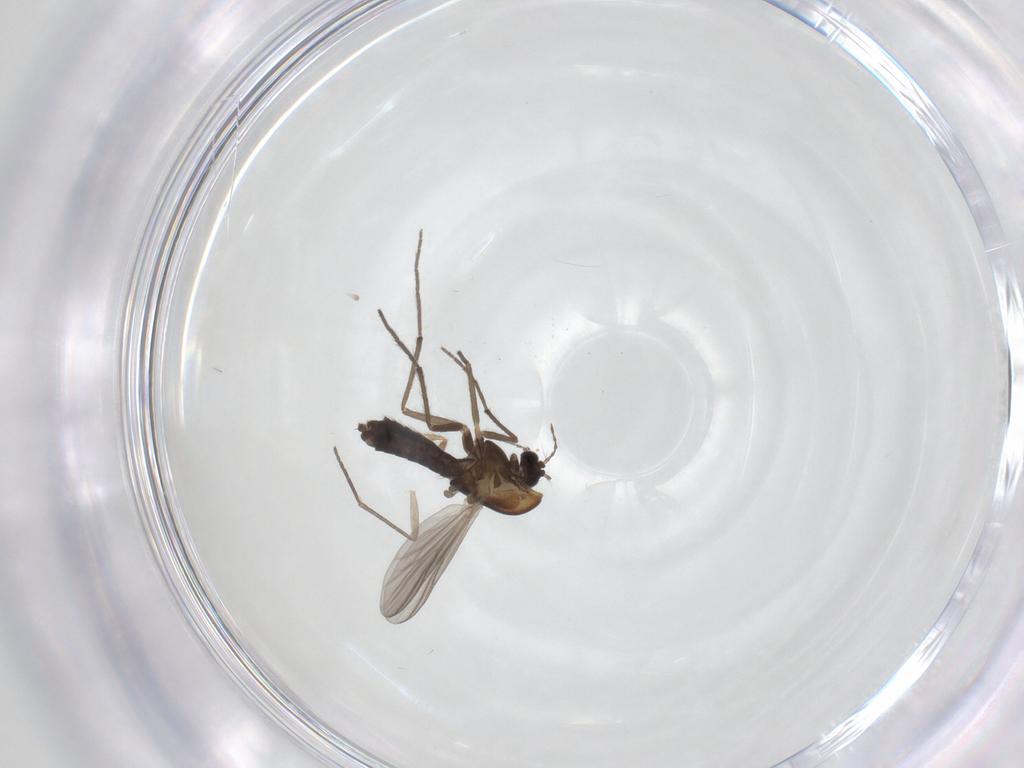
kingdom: Animalia
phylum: Arthropoda
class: Insecta
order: Diptera
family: Chironomidae
